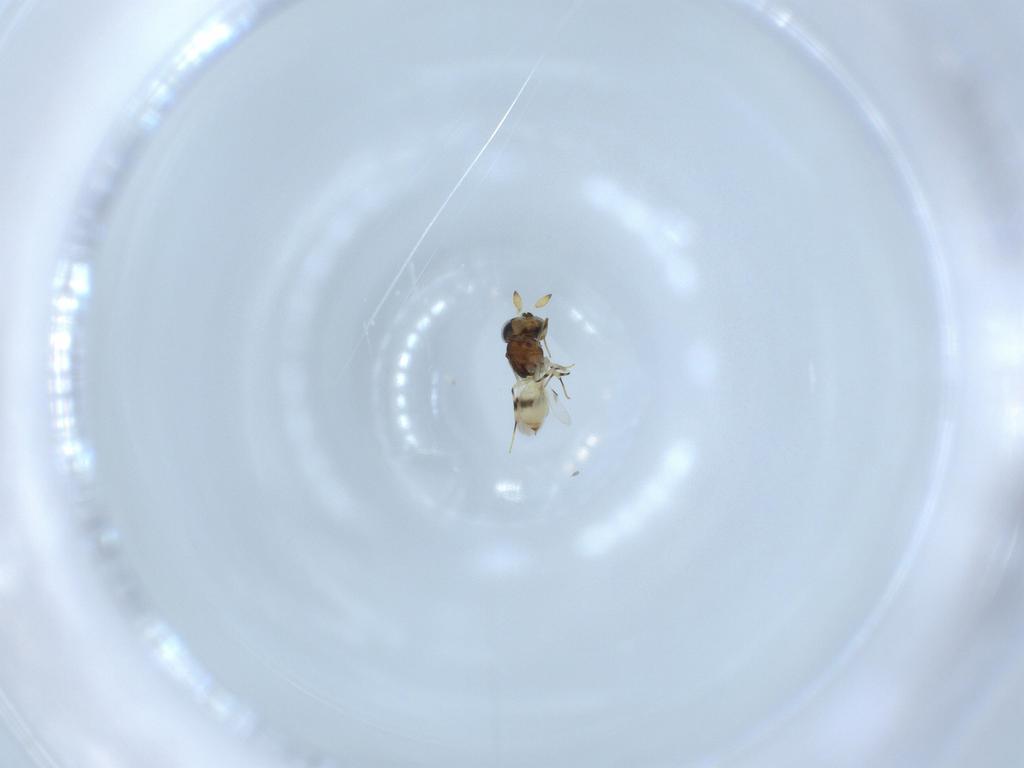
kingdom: Animalia
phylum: Arthropoda
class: Insecta
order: Hymenoptera
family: Scelionidae
